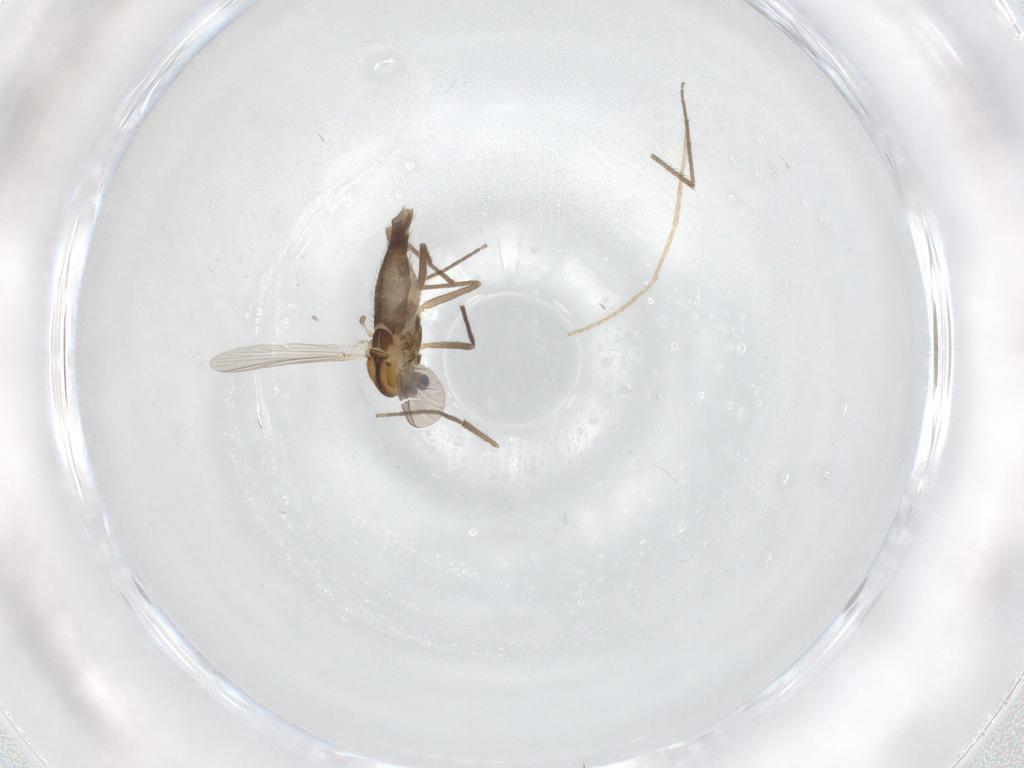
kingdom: Animalia
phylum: Arthropoda
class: Insecta
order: Diptera
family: Chironomidae
